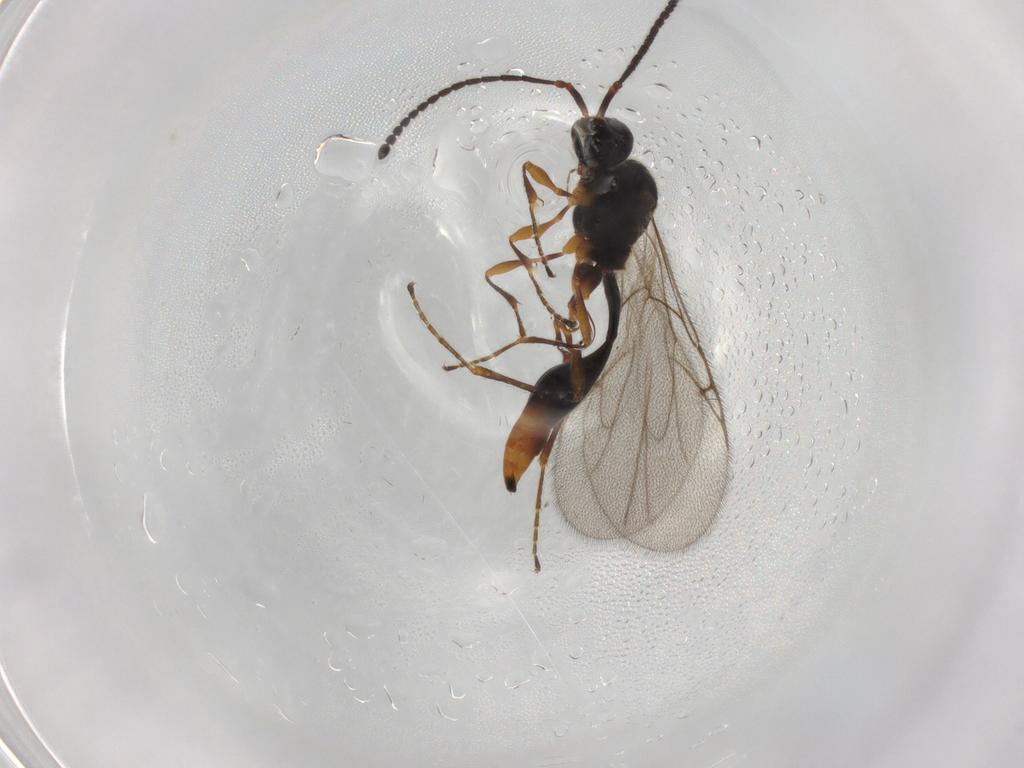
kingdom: Animalia
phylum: Arthropoda
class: Insecta
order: Hymenoptera
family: Diapriidae
